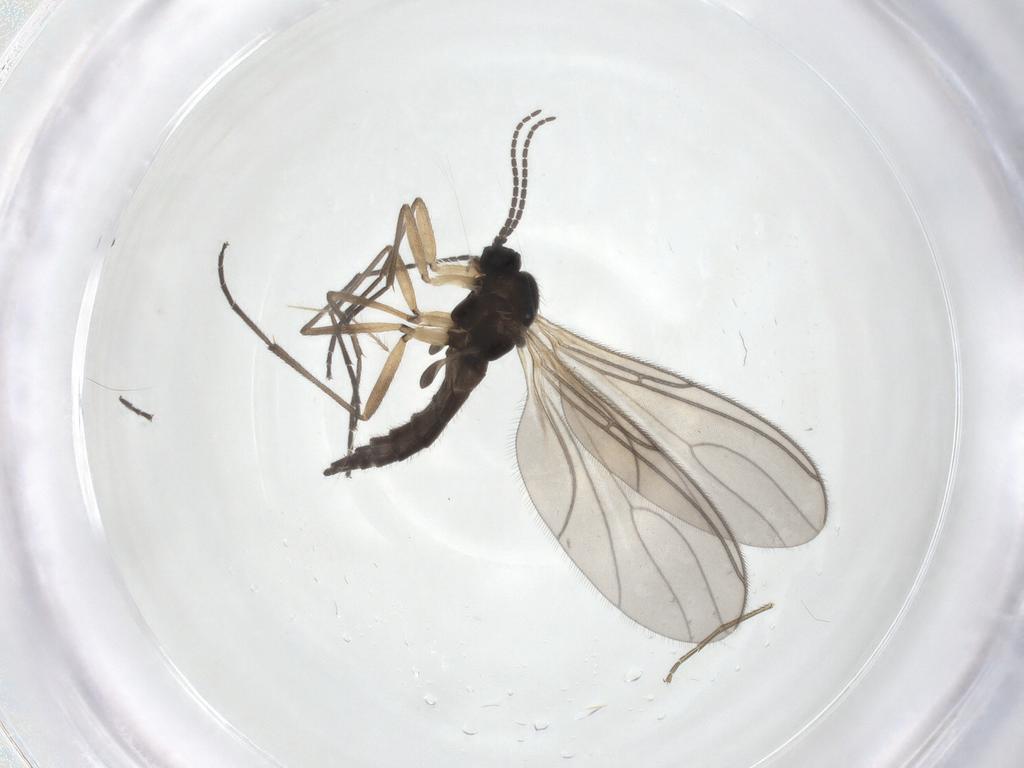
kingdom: Animalia
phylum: Arthropoda
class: Insecta
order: Diptera
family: Sciaridae
